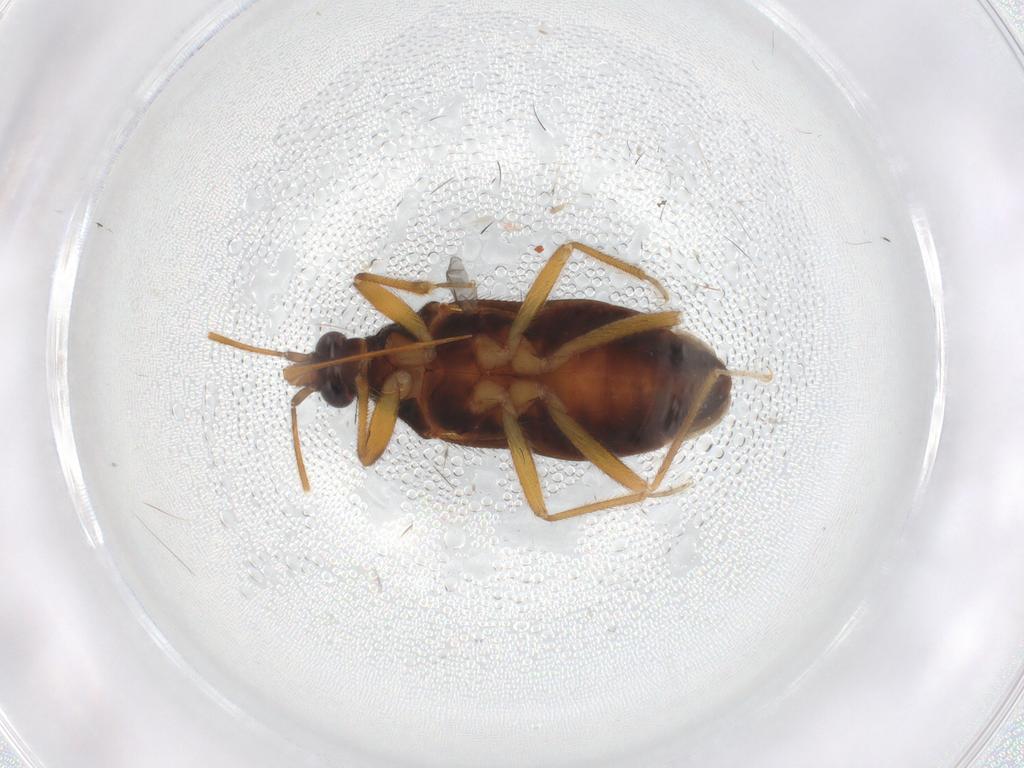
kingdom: Animalia
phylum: Arthropoda
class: Insecta
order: Hemiptera
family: Anthocoridae
